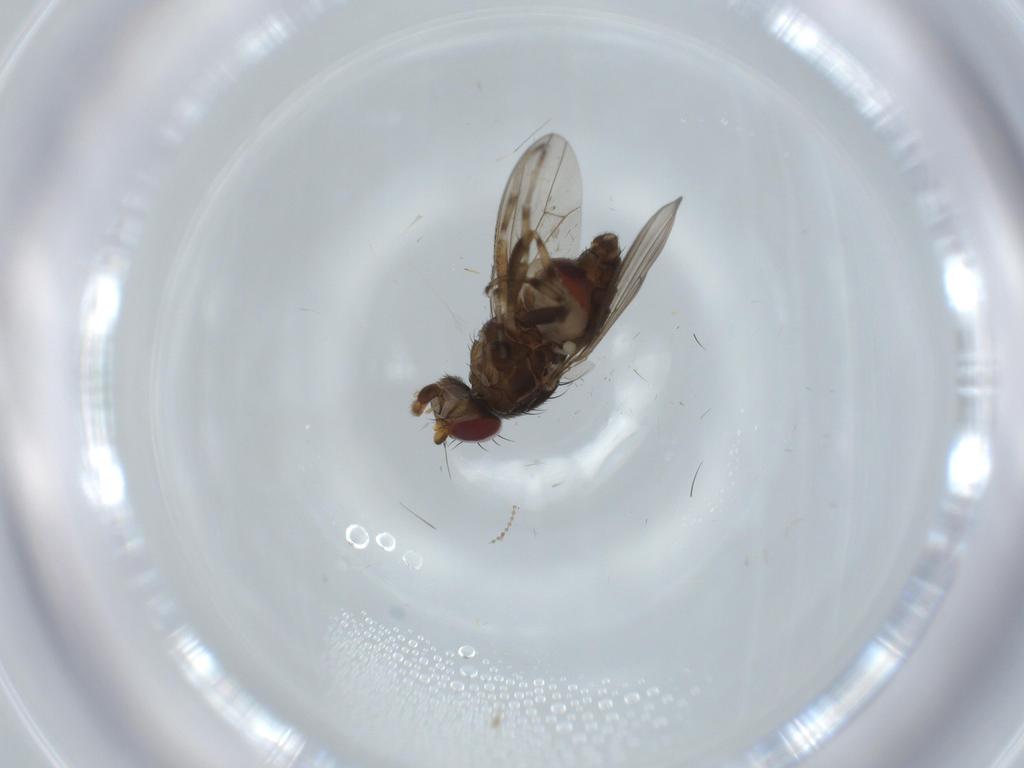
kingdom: Animalia
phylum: Arthropoda
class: Insecta
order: Diptera
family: Heleomyzidae
